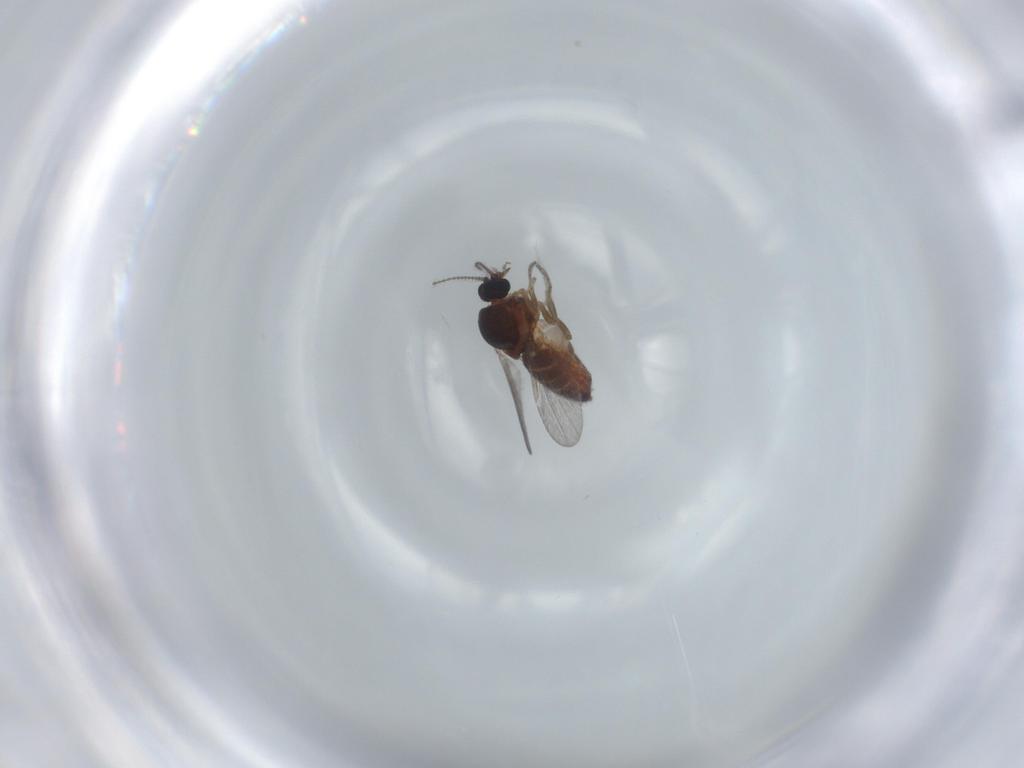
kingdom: Animalia
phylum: Arthropoda
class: Insecta
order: Diptera
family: Ceratopogonidae
